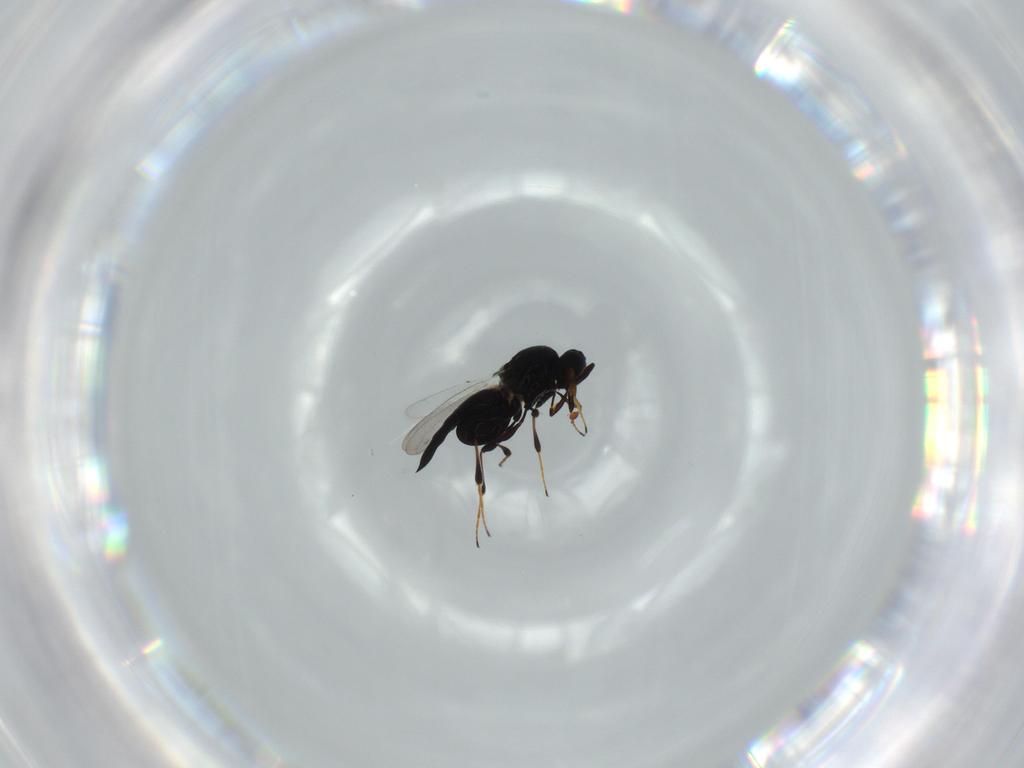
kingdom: Animalia
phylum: Arthropoda
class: Insecta
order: Hymenoptera
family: Platygastridae
